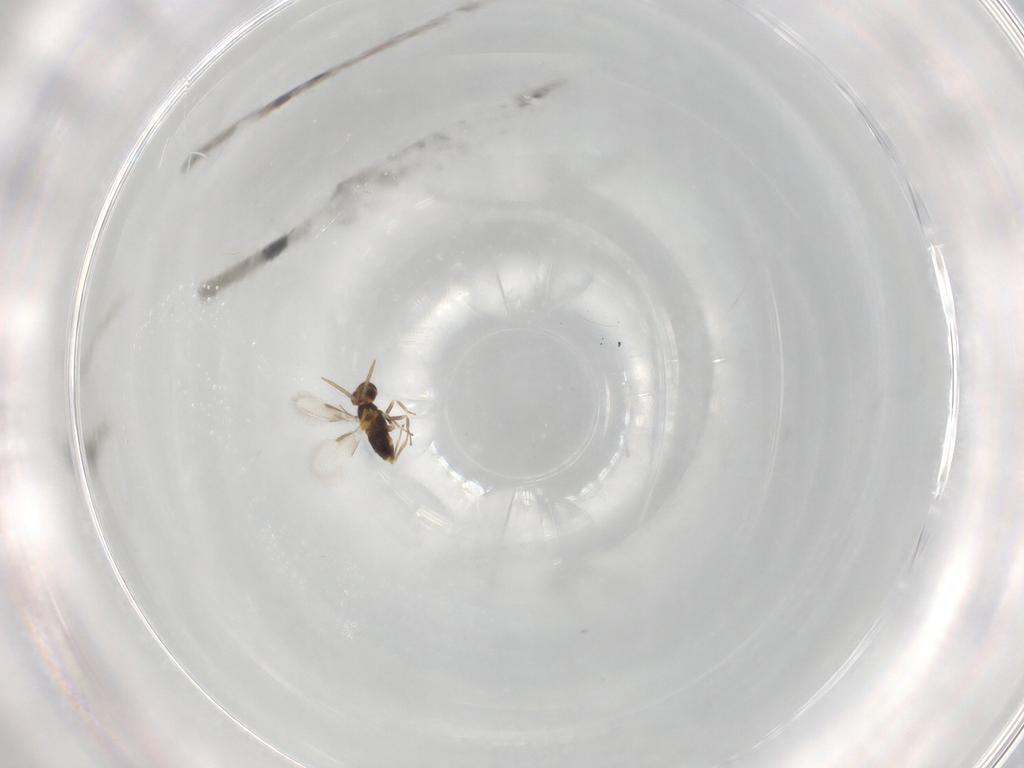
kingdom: Animalia
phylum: Arthropoda
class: Insecta
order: Hymenoptera
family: Aphelinidae
